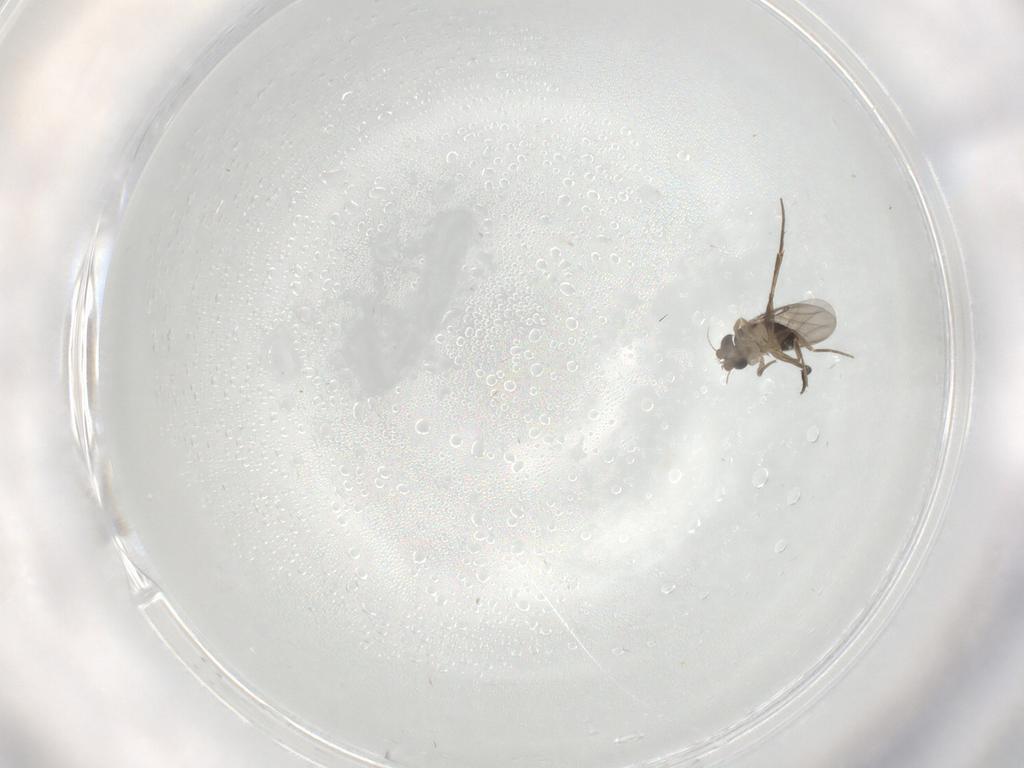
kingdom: Animalia
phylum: Arthropoda
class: Insecta
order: Diptera
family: Phoridae
